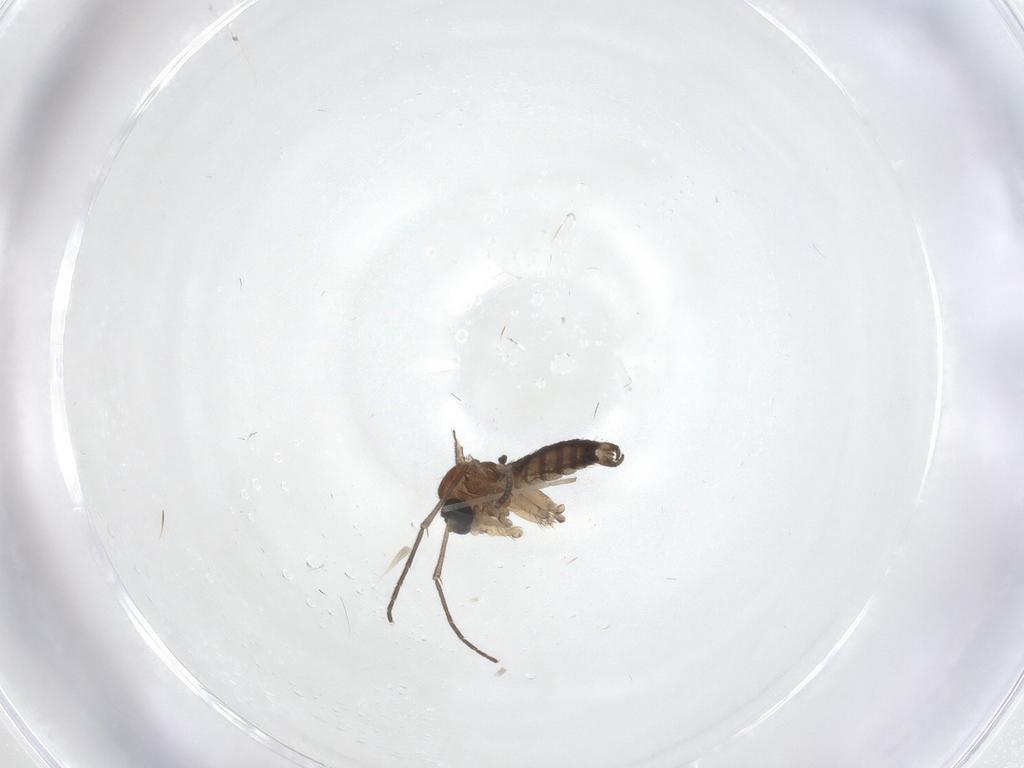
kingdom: Animalia
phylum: Arthropoda
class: Insecta
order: Diptera
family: Sciaridae
